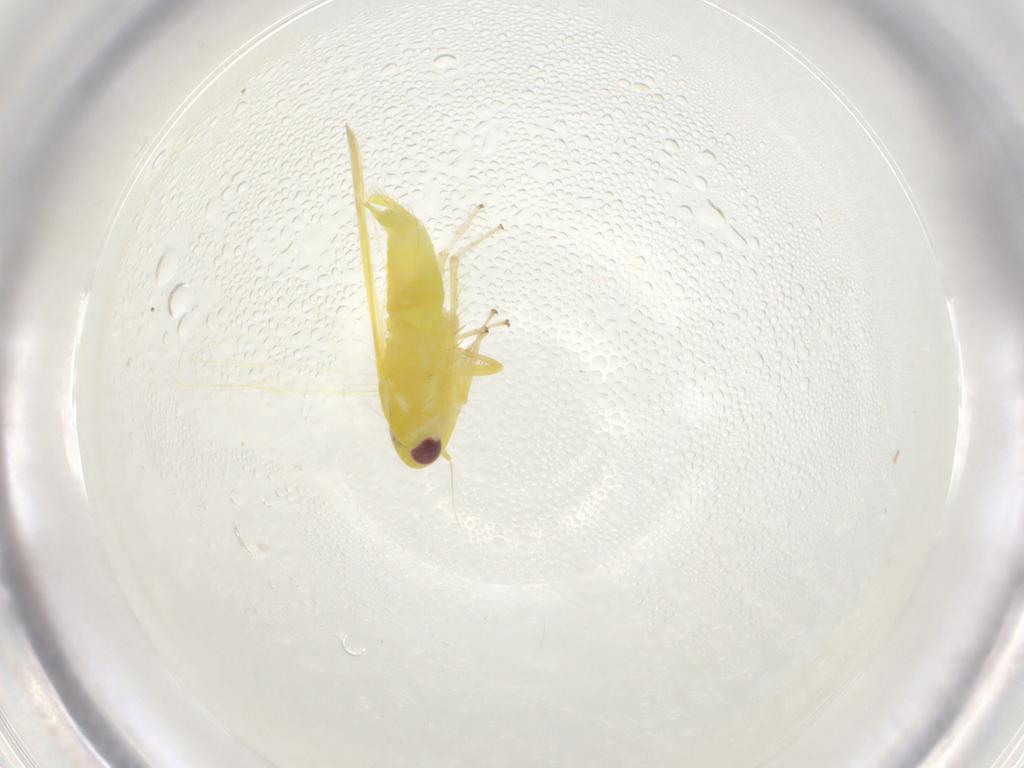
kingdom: Animalia
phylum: Arthropoda
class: Insecta
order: Hemiptera
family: Cicadellidae
